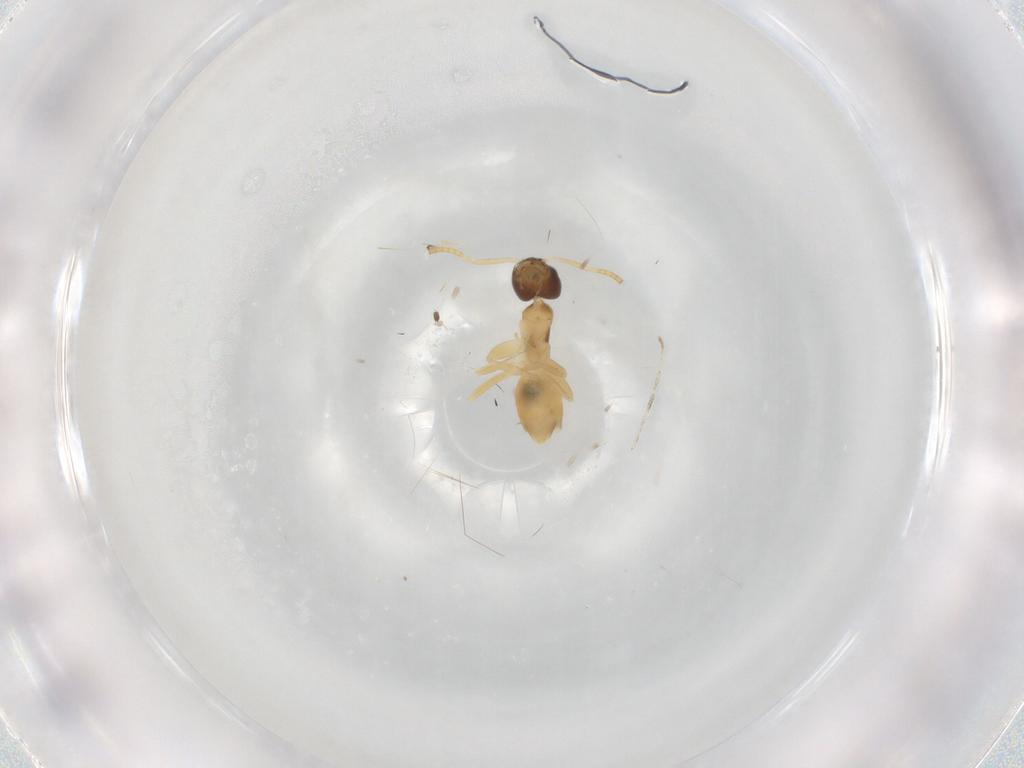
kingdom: Animalia
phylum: Arthropoda
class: Insecta
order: Hymenoptera
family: Formicidae
